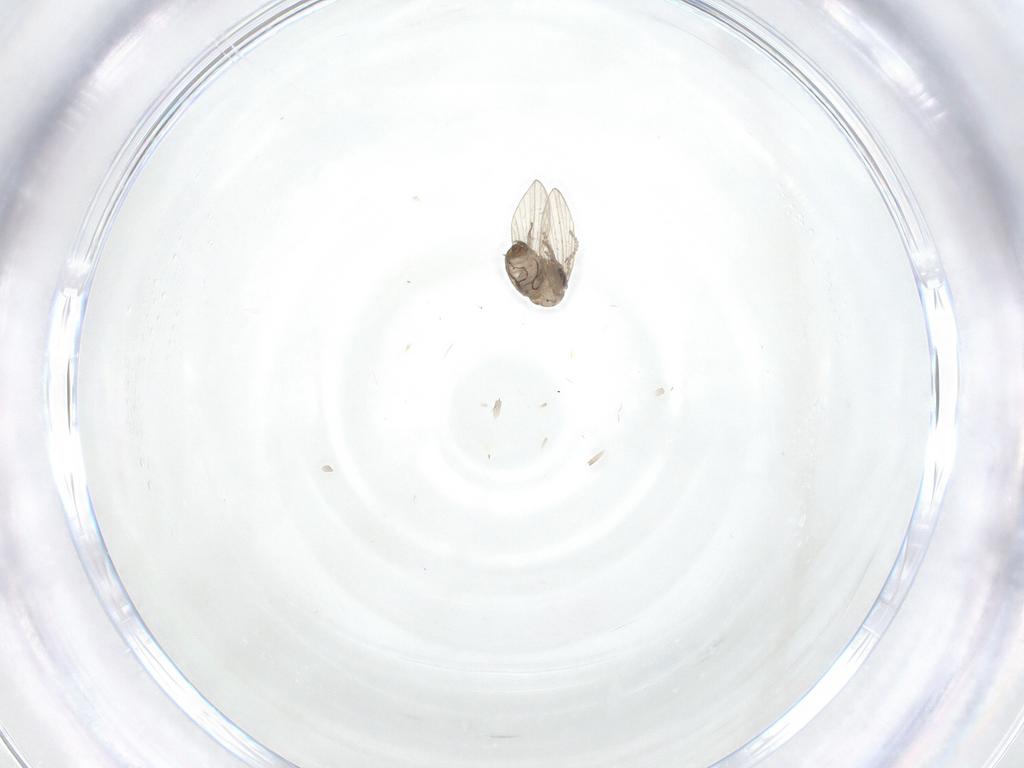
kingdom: Animalia
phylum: Arthropoda
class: Insecta
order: Diptera
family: Psychodidae
